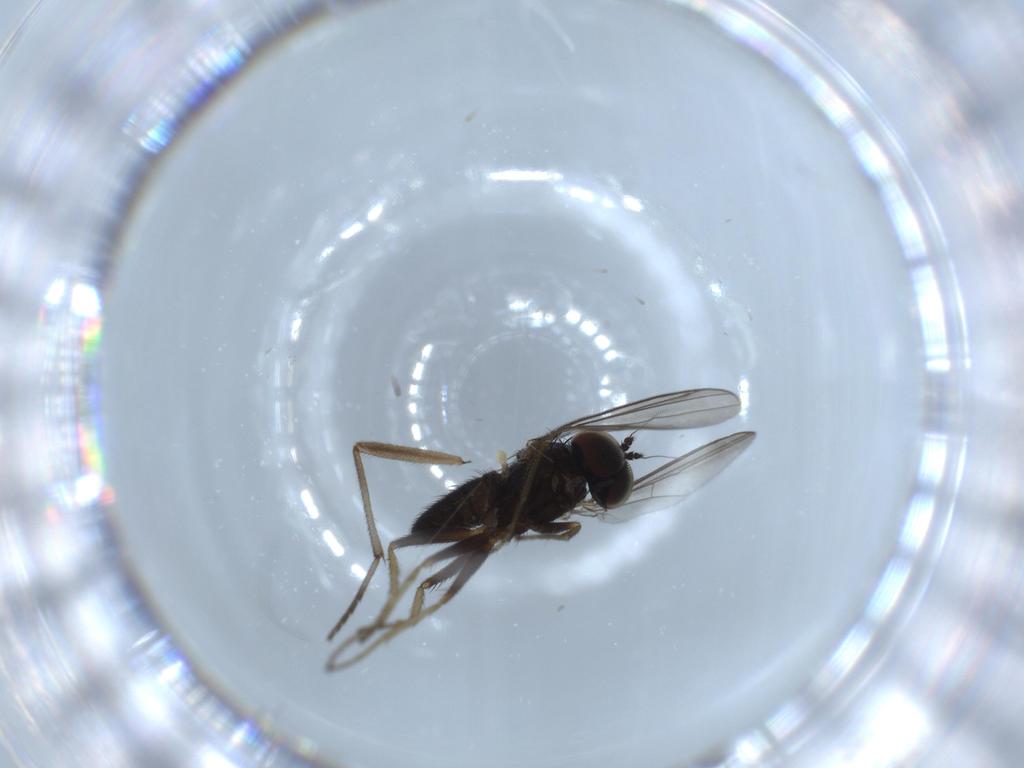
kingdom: Animalia
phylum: Arthropoda
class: Insecta
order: Diptera
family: Sciaridae
